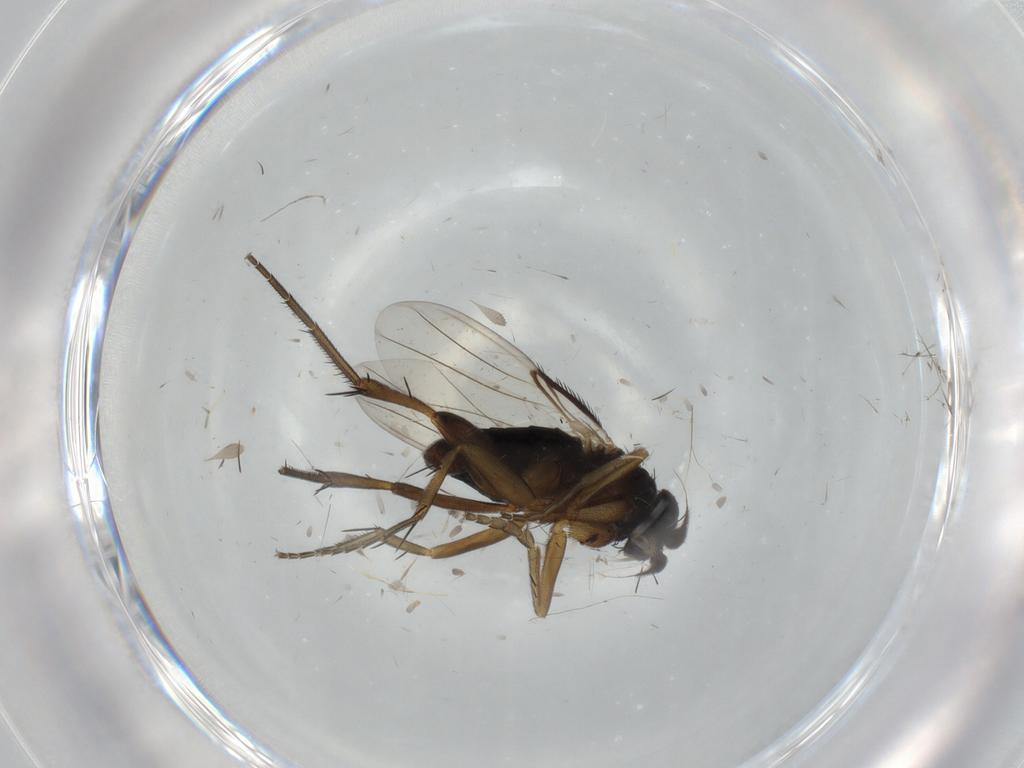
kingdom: Animalia
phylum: Arthropoda
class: Insecta
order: Diptera
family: Phoridae
